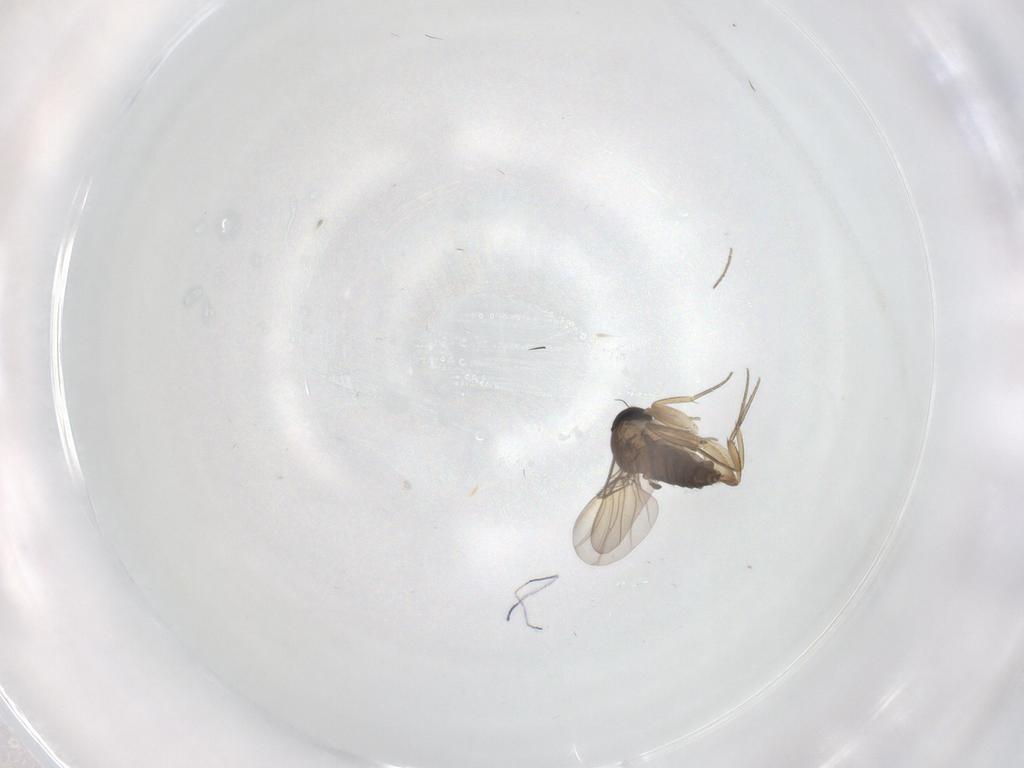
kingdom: Animalia
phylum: Arthropoda
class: Insecta
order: Diptera
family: Phoridae
